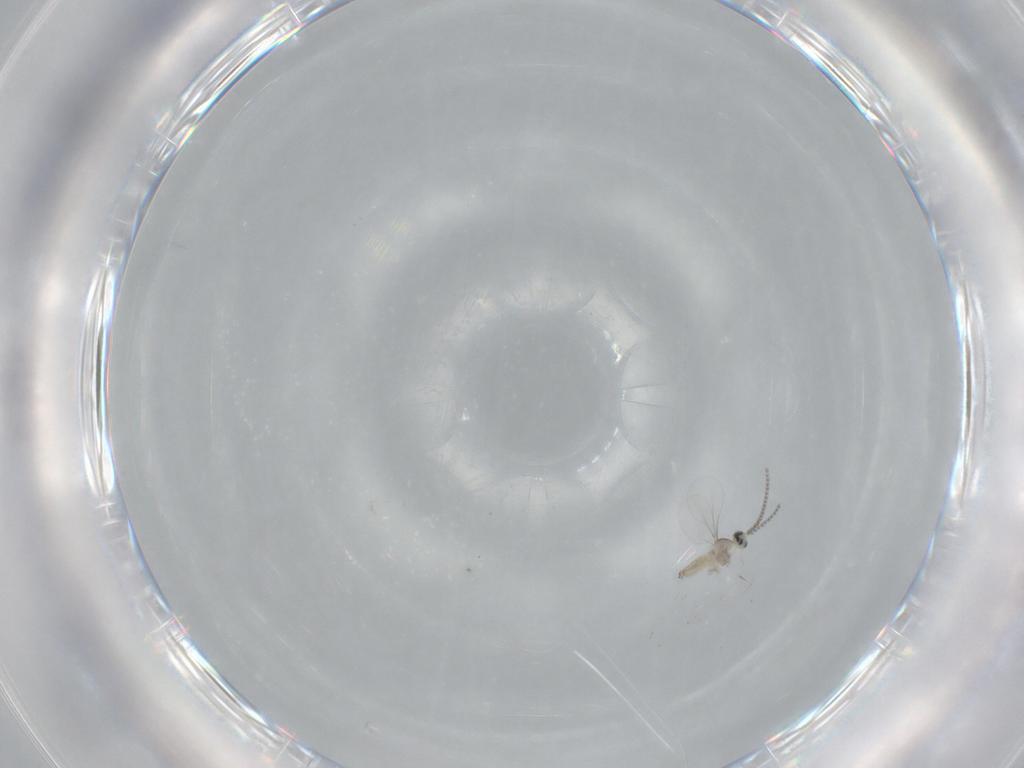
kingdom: Animalia
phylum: Arthropoda
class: Insecta
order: Diptera
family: Cecidomyiidae
